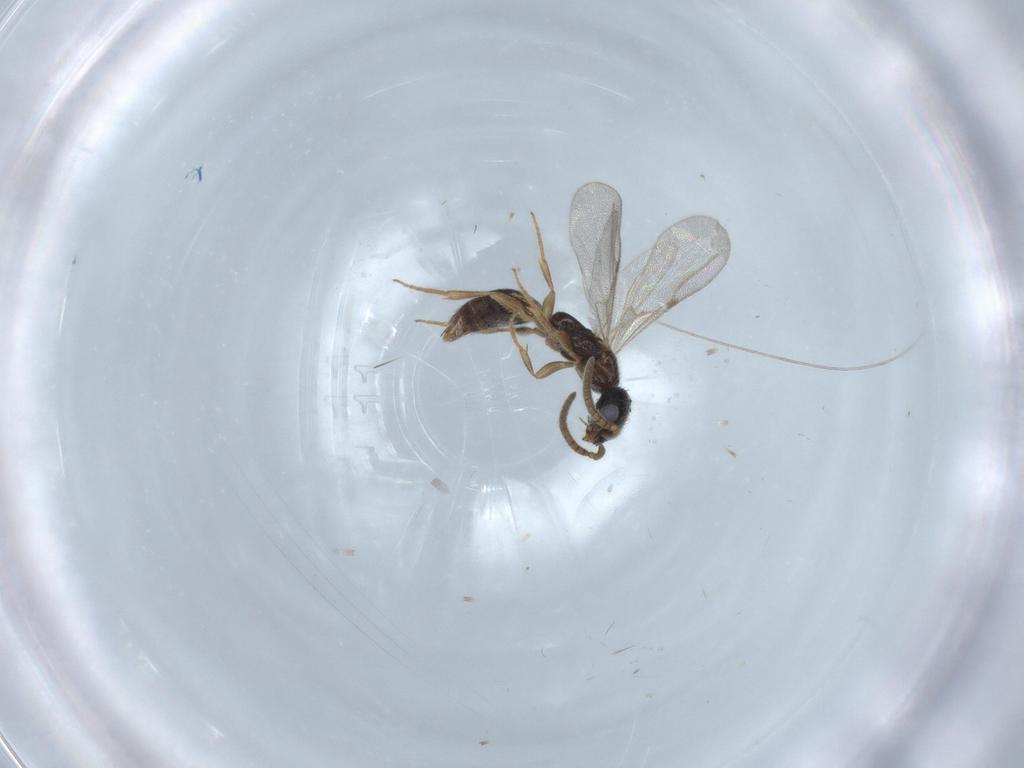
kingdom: Animalia
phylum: Arthropoda
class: Insecta
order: Hymenoptera
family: Bethylidae
